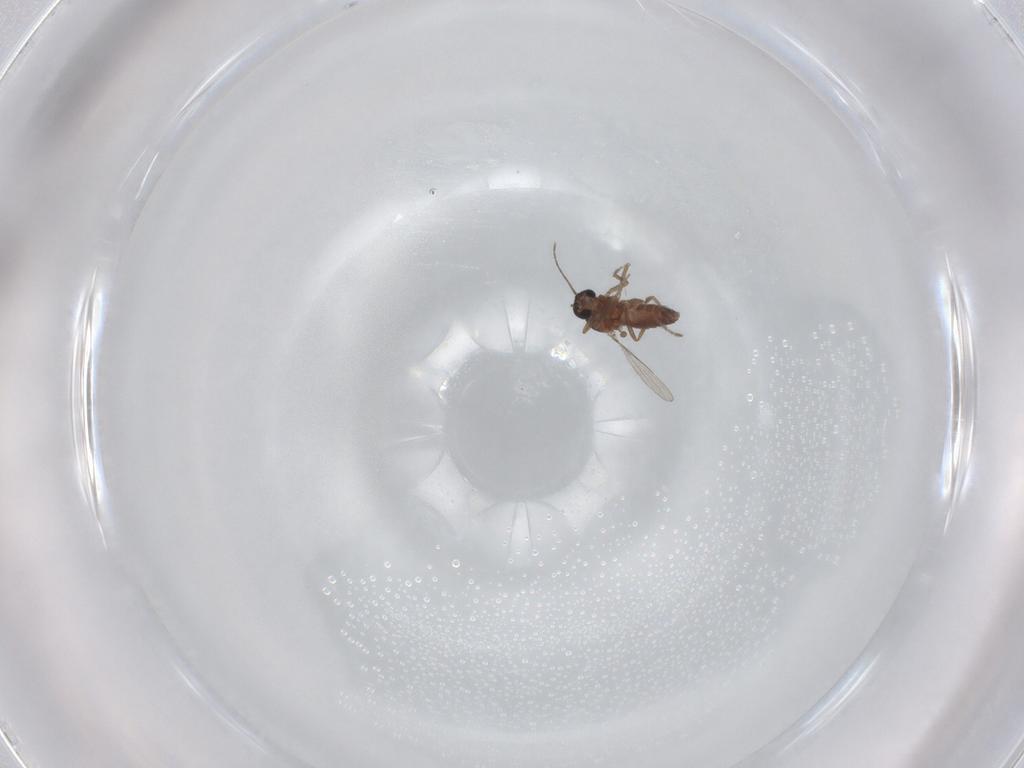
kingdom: Animalia
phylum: Arthropoda
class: Insecta
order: Diptera
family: Ceratopogonidae
